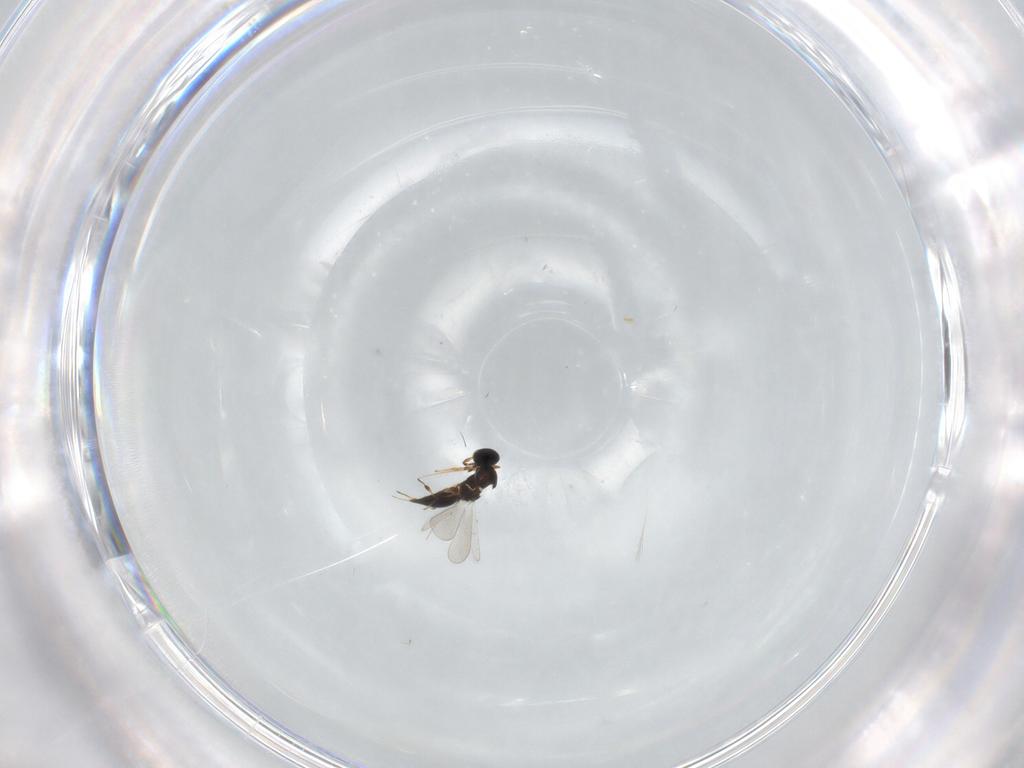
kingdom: Animalia
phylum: Arthropoda
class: Insecta
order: Hymenoptera
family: Platygastridae
